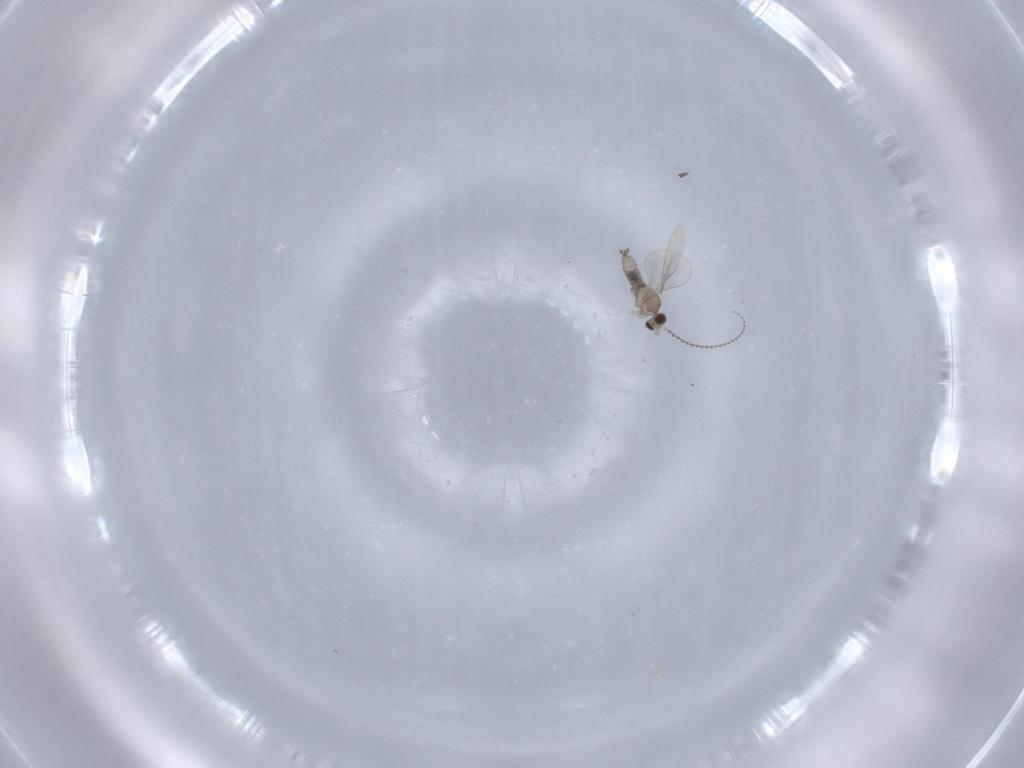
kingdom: Animalia
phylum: Arthropoda
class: Insecta
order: Diptera
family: Cecidomyiidae
